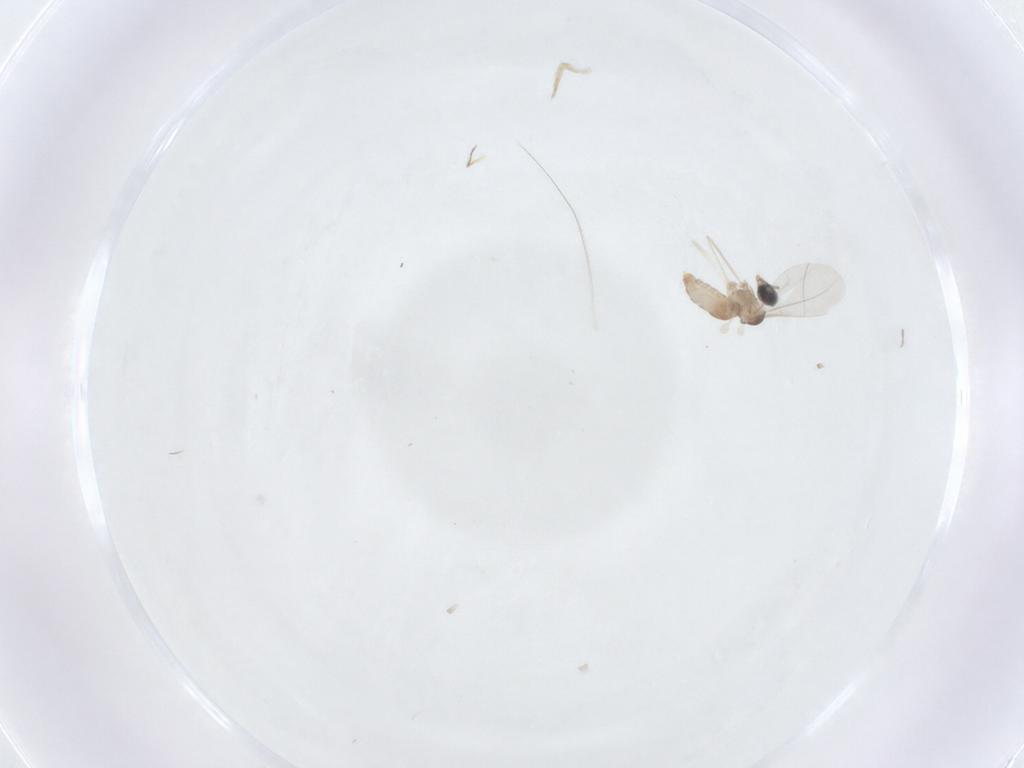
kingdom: Animalia
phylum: Arthropoda
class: Insecta
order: Diptera
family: Cecidomyiidae
